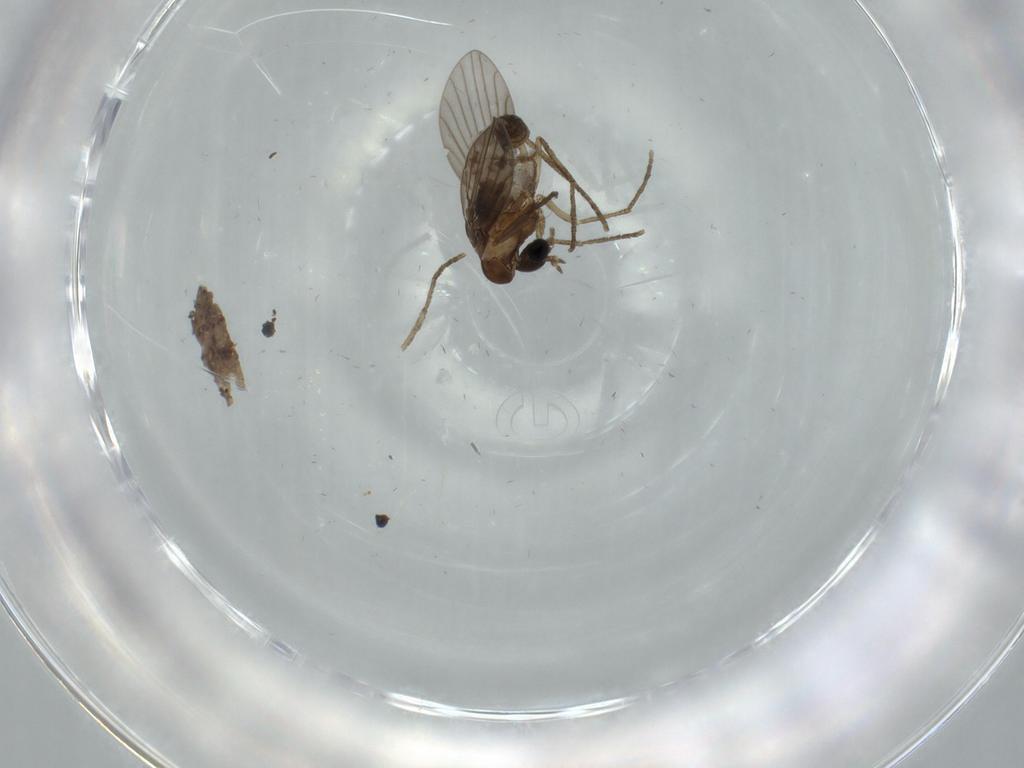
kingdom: Animalia
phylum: Arthropoda
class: Insecta
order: Diptera
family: Psychodidae
